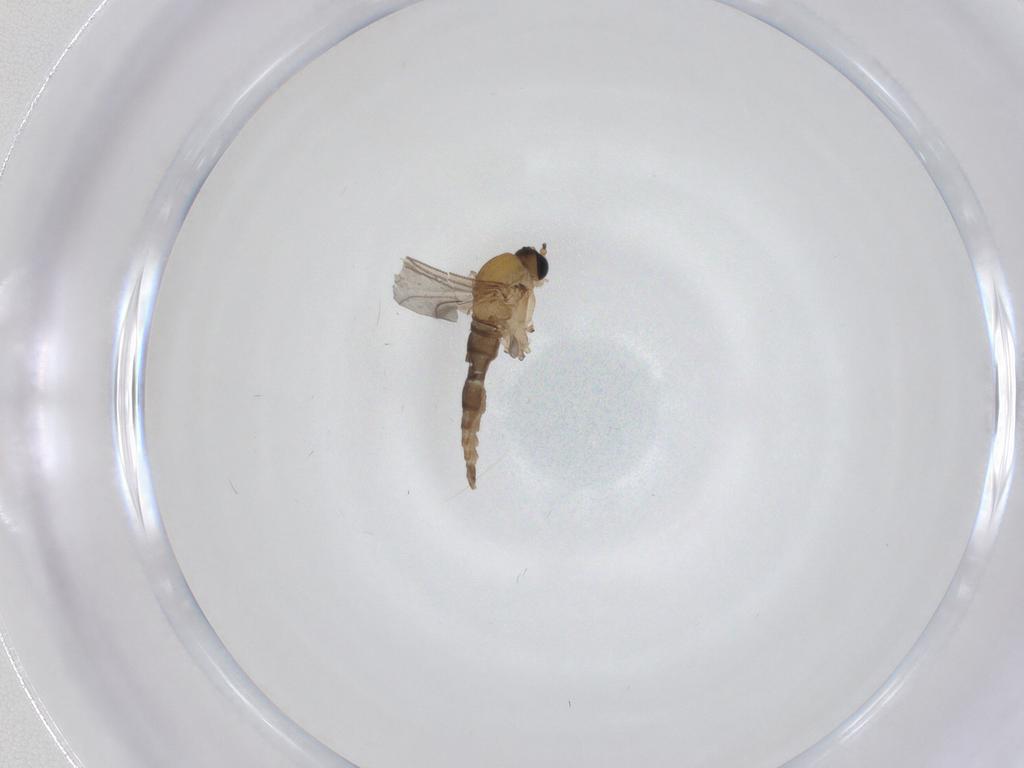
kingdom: Animalia
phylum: Arthropoda
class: Insecta
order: Diptera
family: Sciaridae
